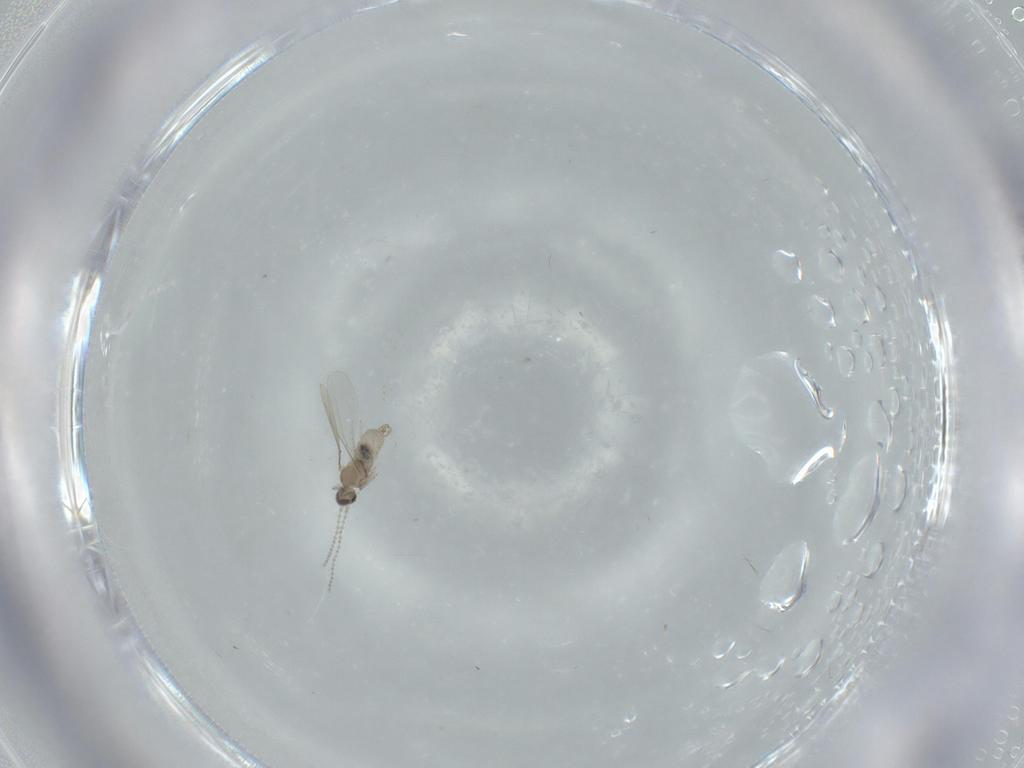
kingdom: Animalia
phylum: Arthropoda
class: Insecta
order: Diptera
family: Cecidomyiidae
